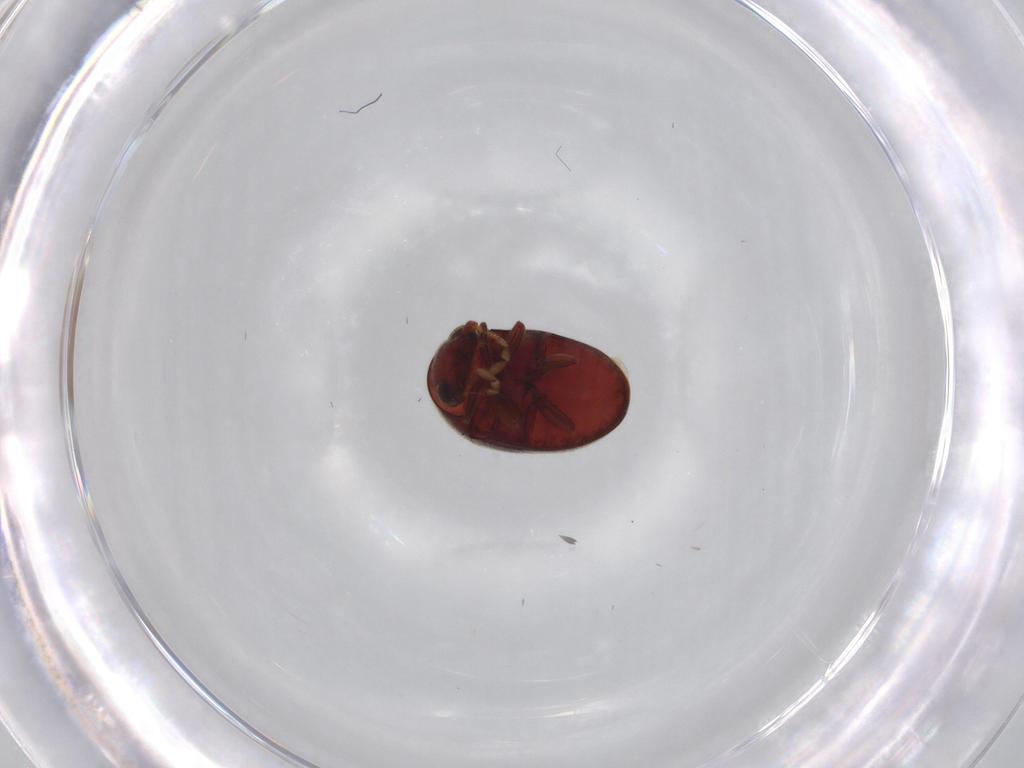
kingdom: Animalia
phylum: Arthropoda
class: Insecta
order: Coleoptera
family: Ptinidae
